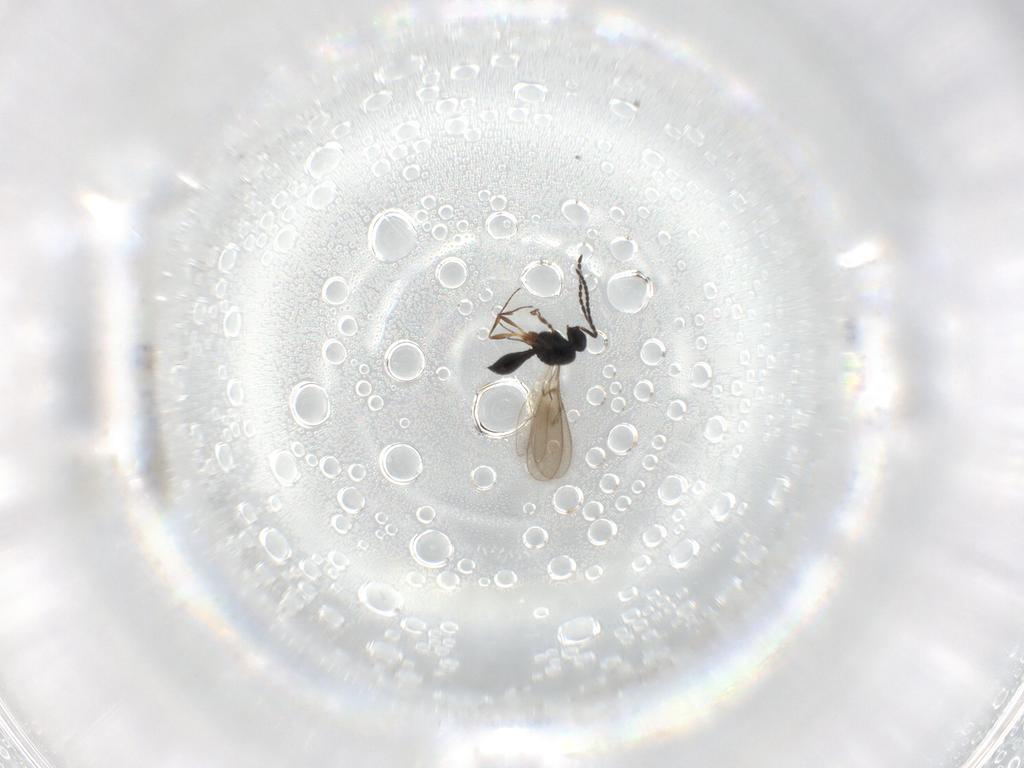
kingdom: Animalia
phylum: Arthropoda
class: Insecta
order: Hymenoptera
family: Scelionidae
